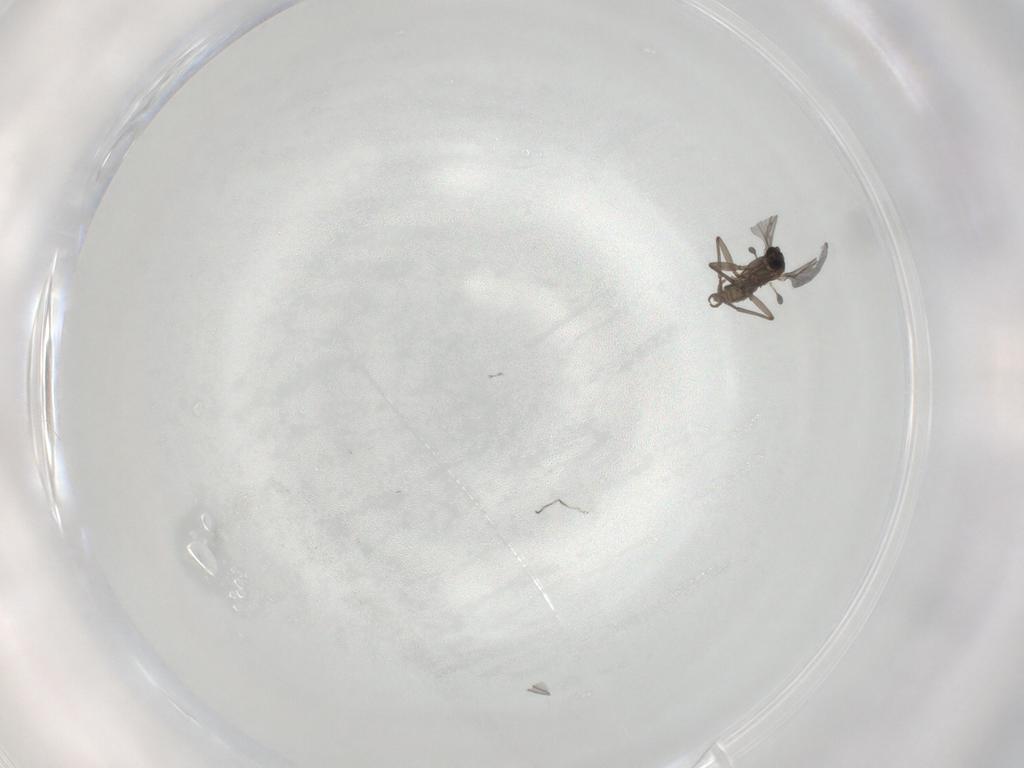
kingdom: Animalia
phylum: Arthropoda
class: Insecta
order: Diptera
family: Sciaridae
